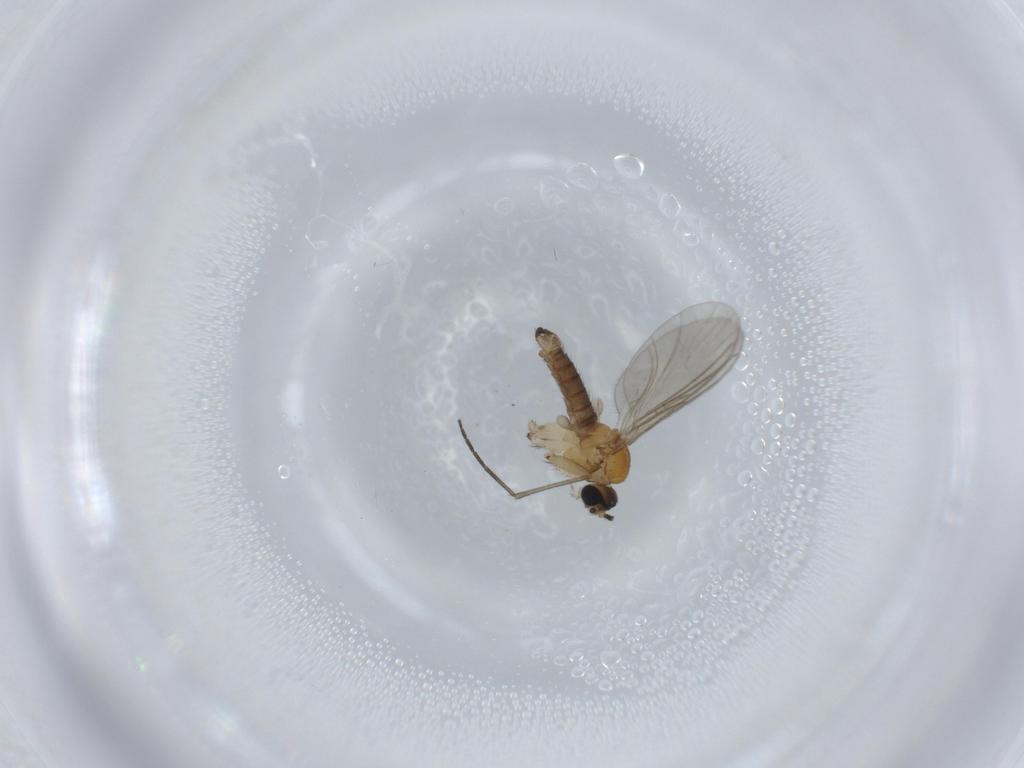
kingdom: Animalia
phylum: Arthropoda
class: Insecta
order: Diptera
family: Sciaridae
